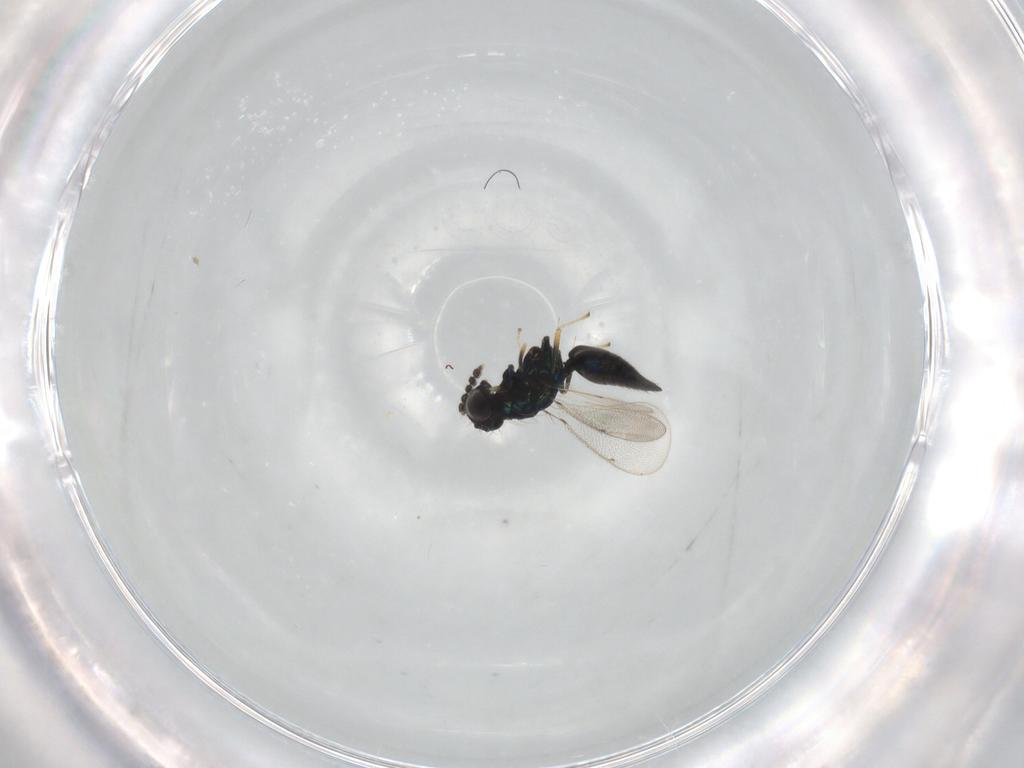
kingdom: Animalia
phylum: Arthropoda
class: Insecta
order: Hymenoptera
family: Encyrtidae
